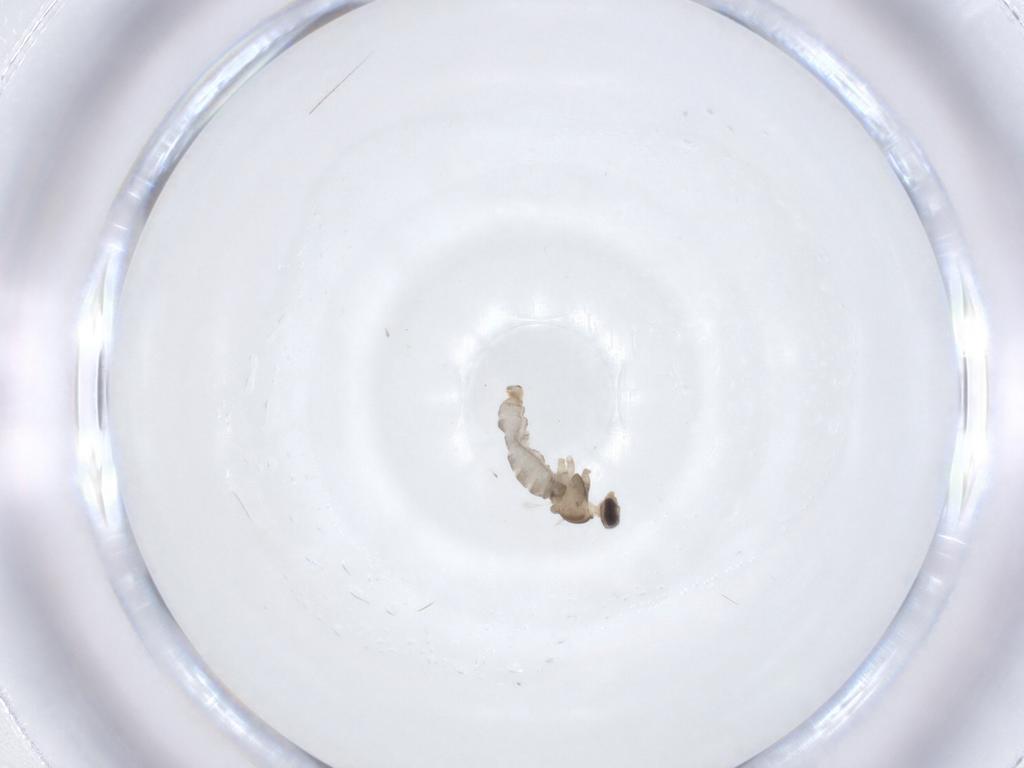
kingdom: Animalia
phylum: Arthropoda
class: Insecta
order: Diptera
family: Cecidomyiidae
